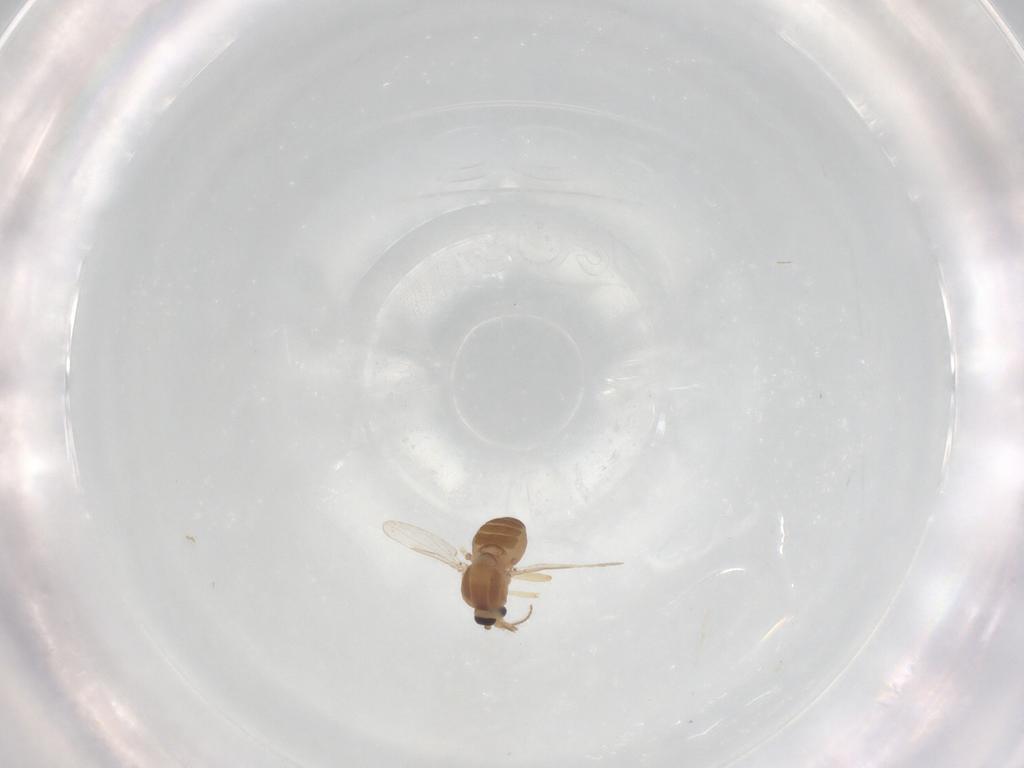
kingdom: Animalia
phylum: Arthropoda
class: Insecta
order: Diptera
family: Ceratopogonidae
